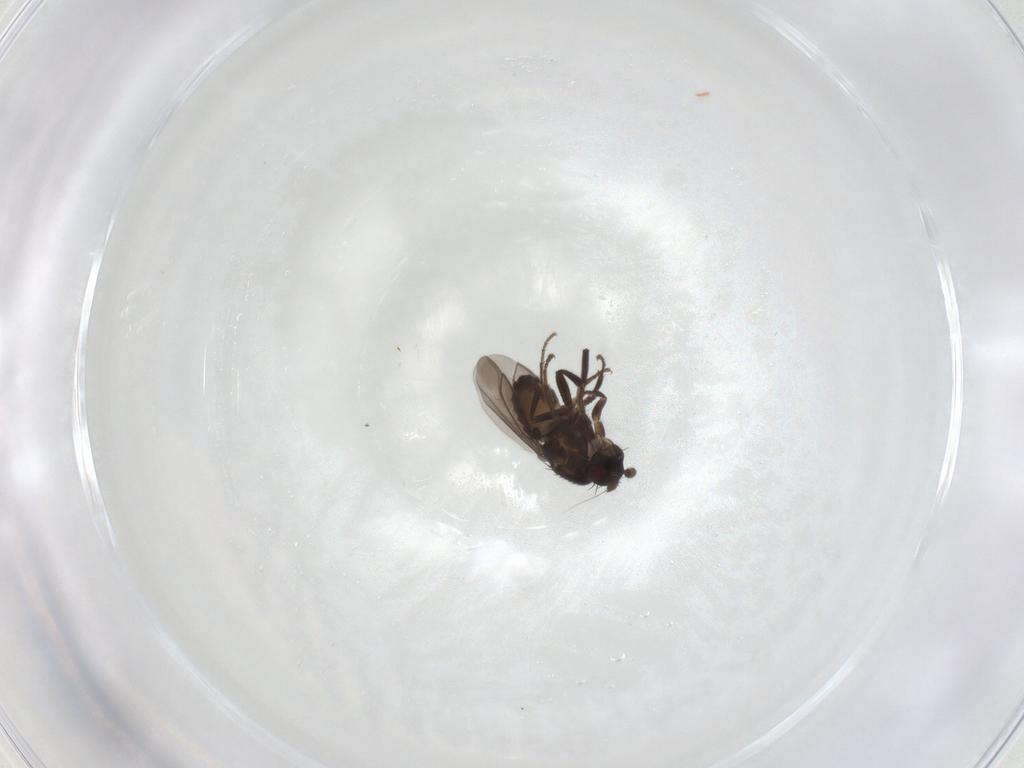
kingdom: Animalia
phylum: Arthropoda
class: Insecta
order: Diptera
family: Sphaeroceridae
